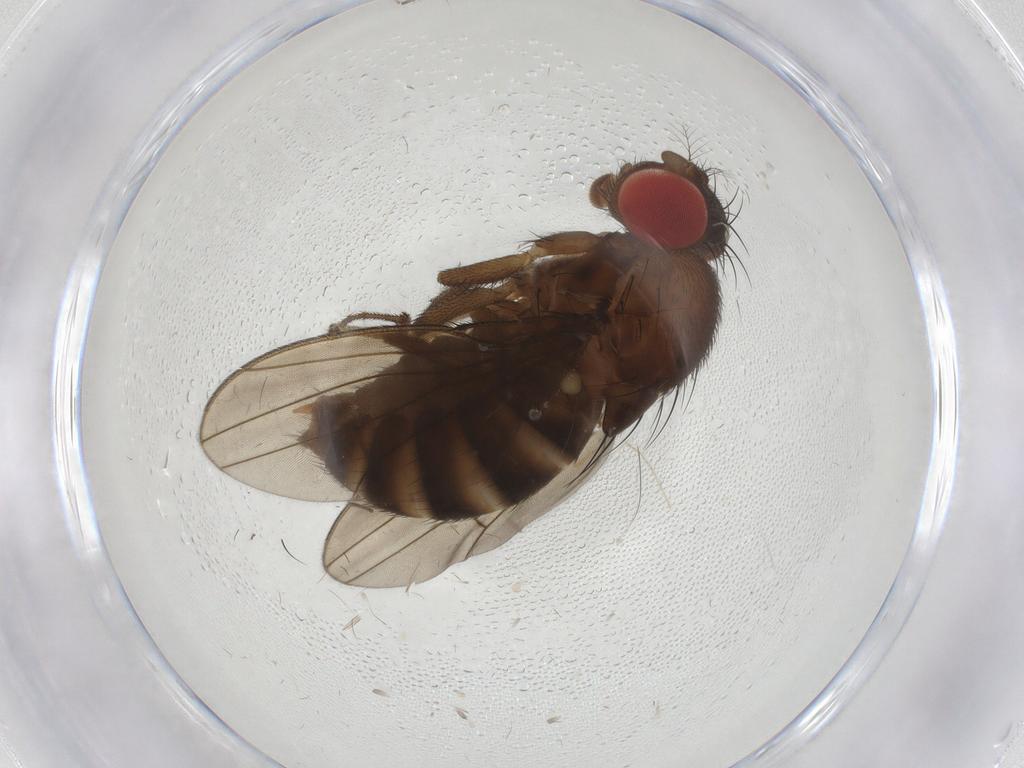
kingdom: Animalia
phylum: Arthropoda
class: Insecta
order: Diptera
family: Drosophilidae
